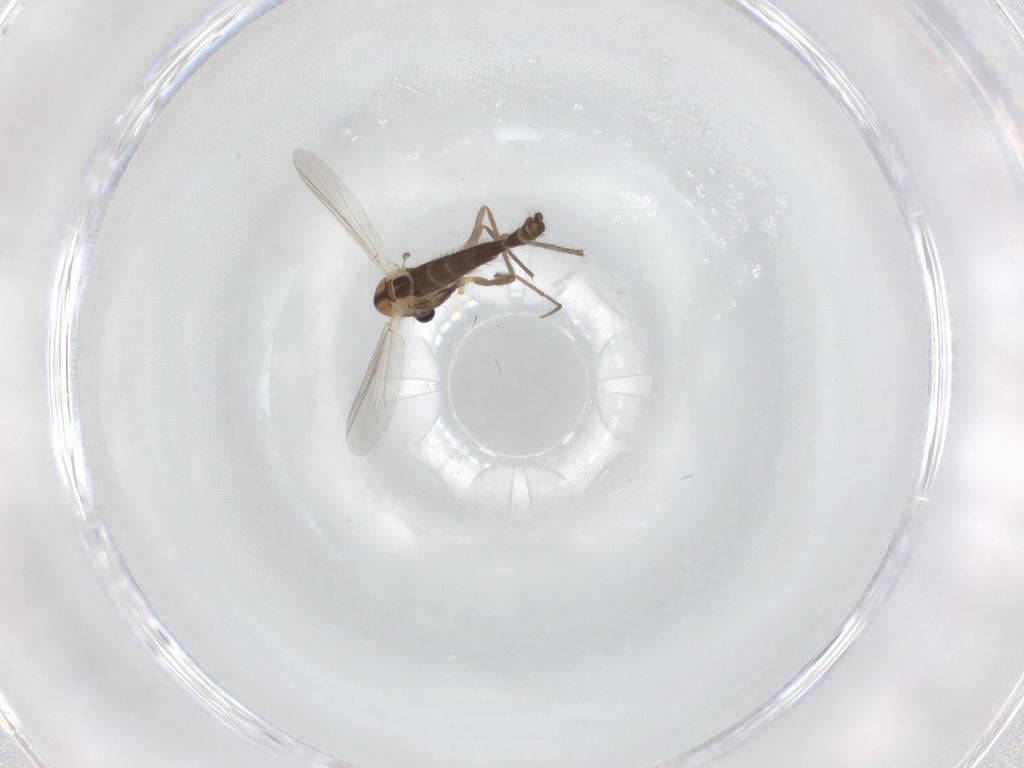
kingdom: Animalia
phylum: Arthropoda
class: Insecta
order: Diptera
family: Chironomidae
